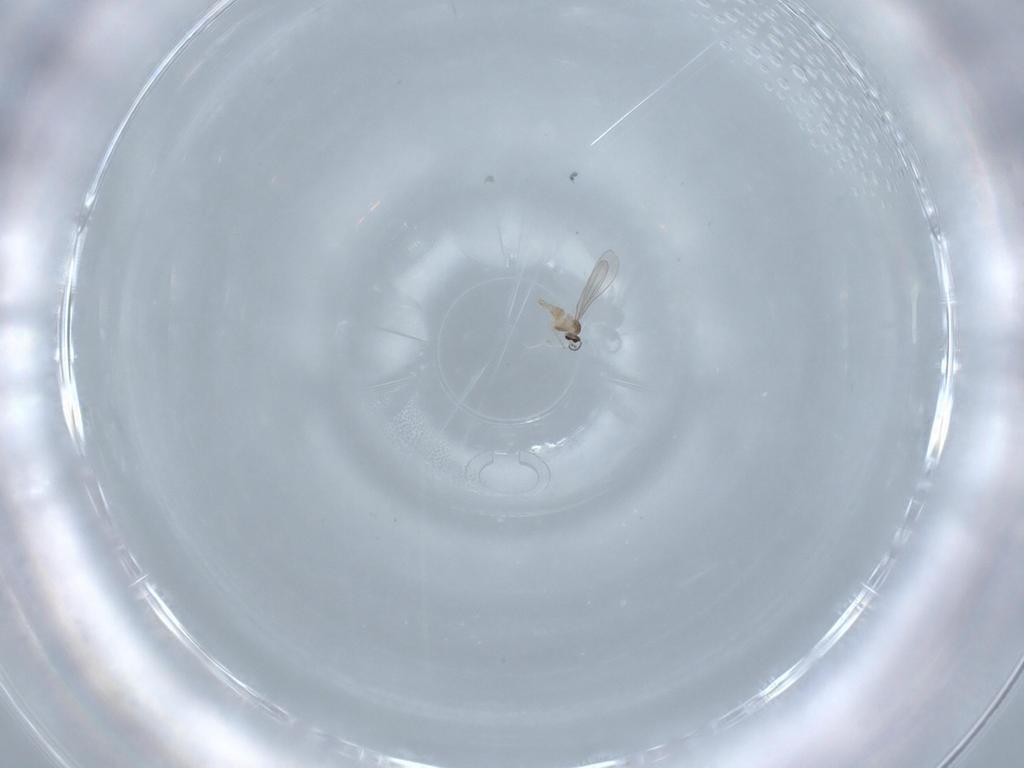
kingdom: Animalia
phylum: Arthropoda
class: Insecta
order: Diptera
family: Cecidomyiidae
